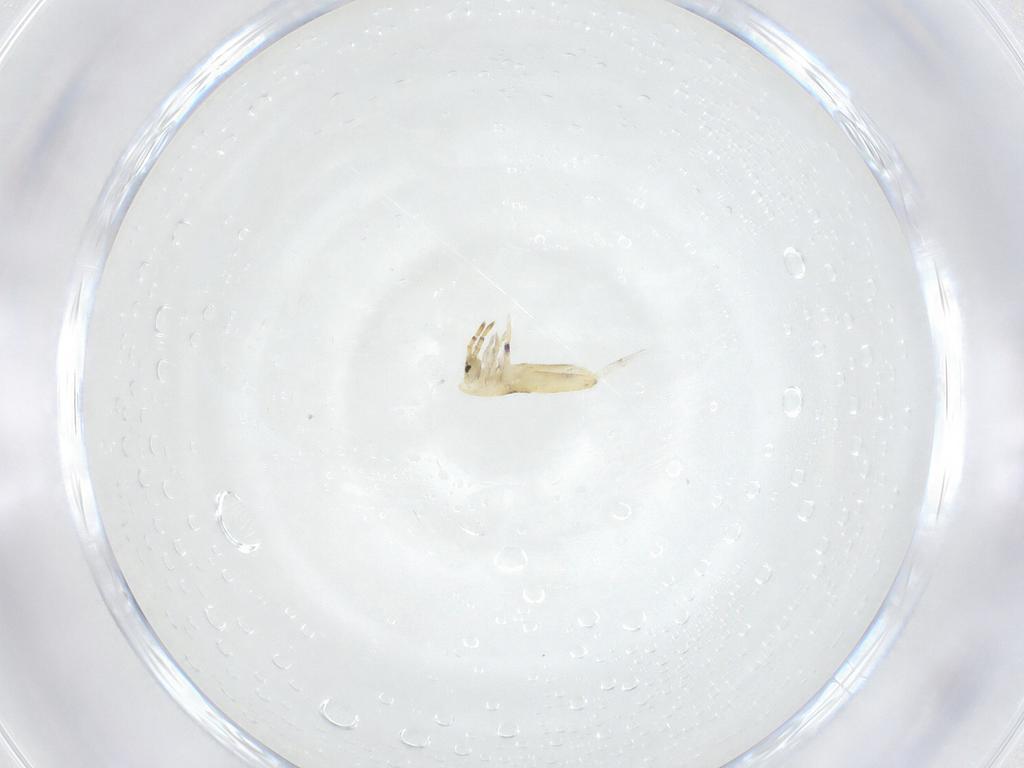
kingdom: Animalia
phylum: Arthropoda
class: Collembola
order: Entomobryomorpha
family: Entomobryidae
